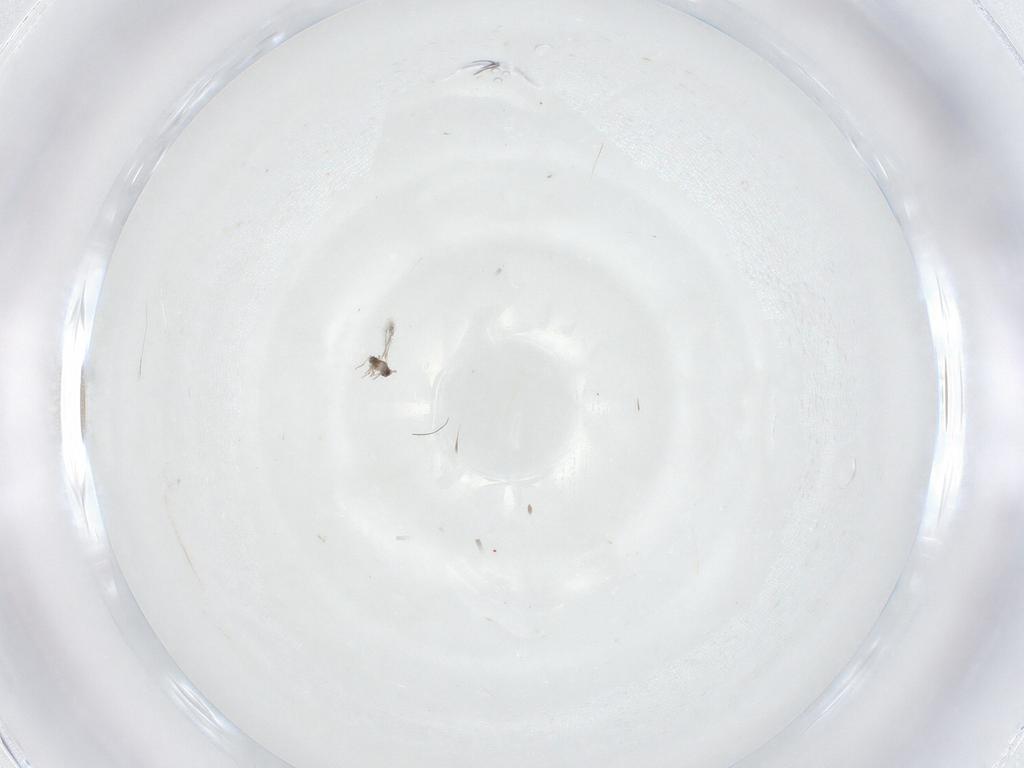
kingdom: Animalia
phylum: Arthropoda
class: Insecta
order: Hymenoptera
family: Mymaridae
